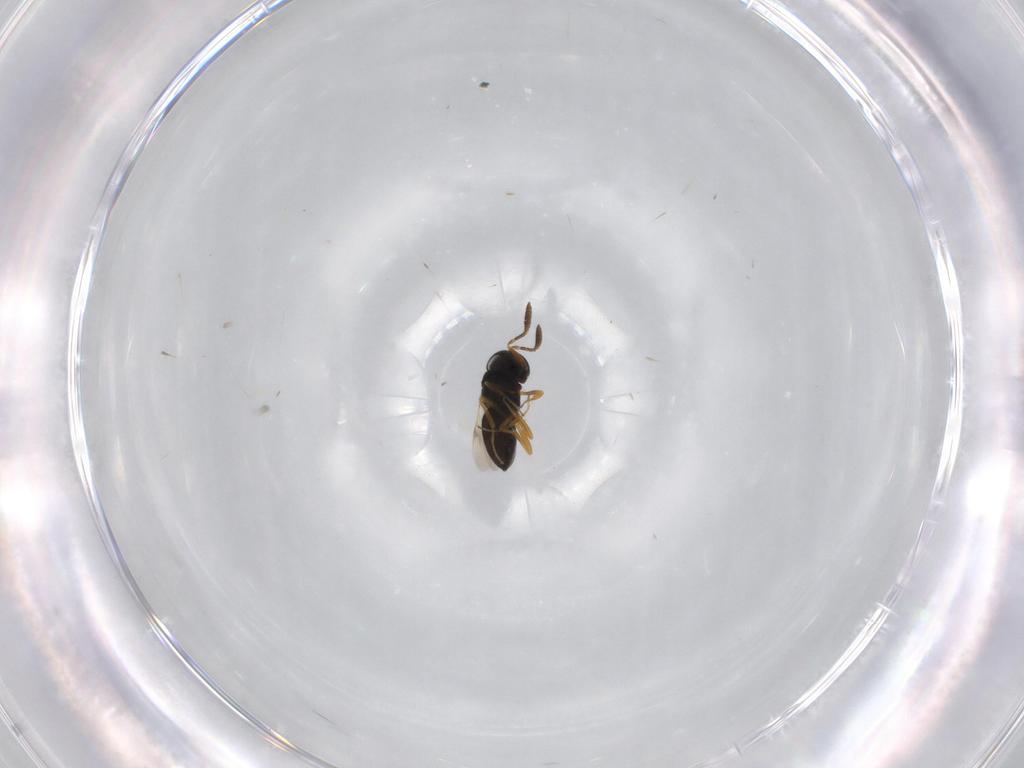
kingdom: Animalia
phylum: Arthropoda
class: Insecta
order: Hymenoptera
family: Scelionidae
